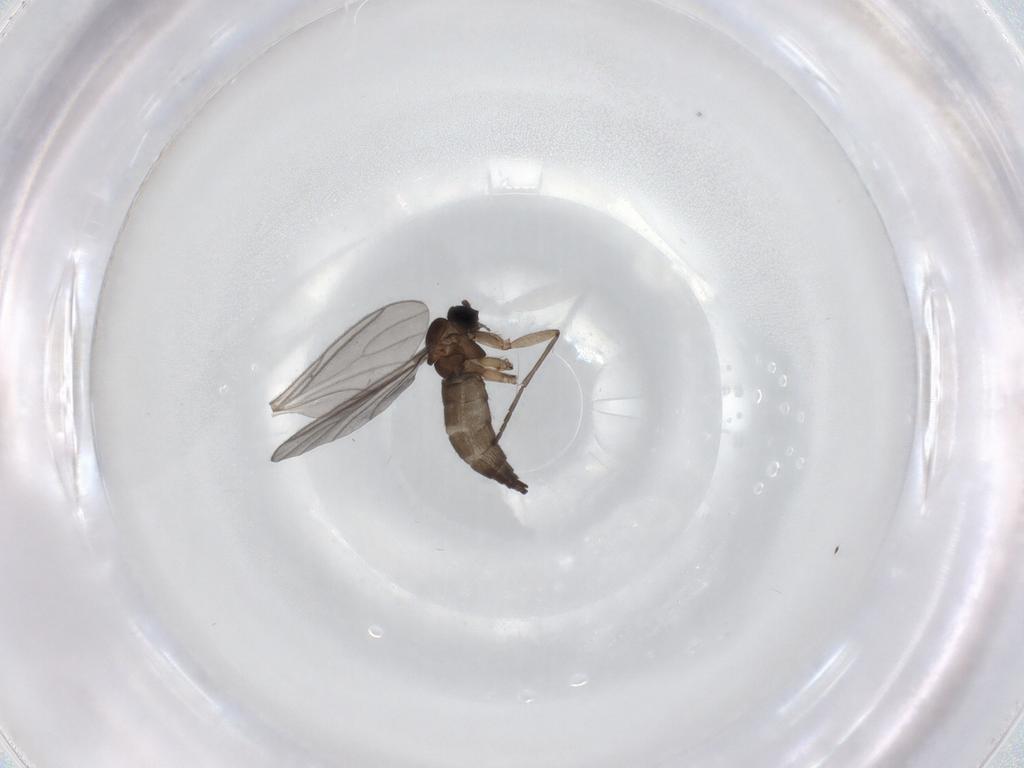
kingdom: Animalia
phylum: Arthropoda
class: Insecta
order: Diptera
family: Sciaridae
